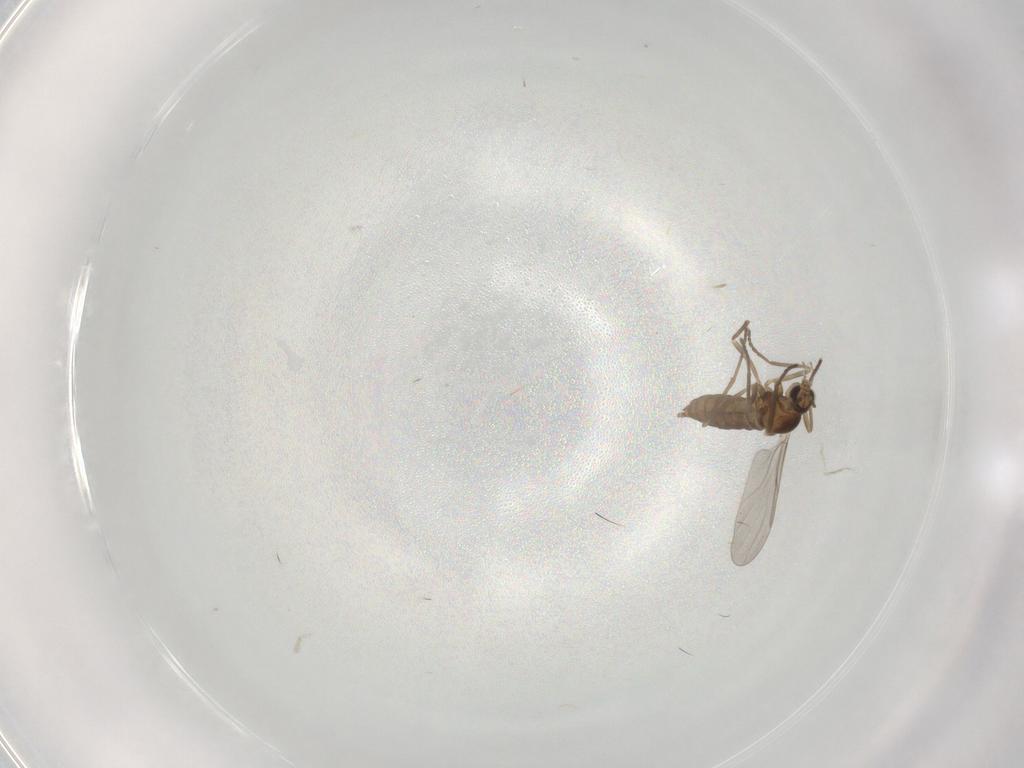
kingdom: Animalia
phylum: Arthropoda
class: Insecta
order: Diptera
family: Cecidomyiidae
